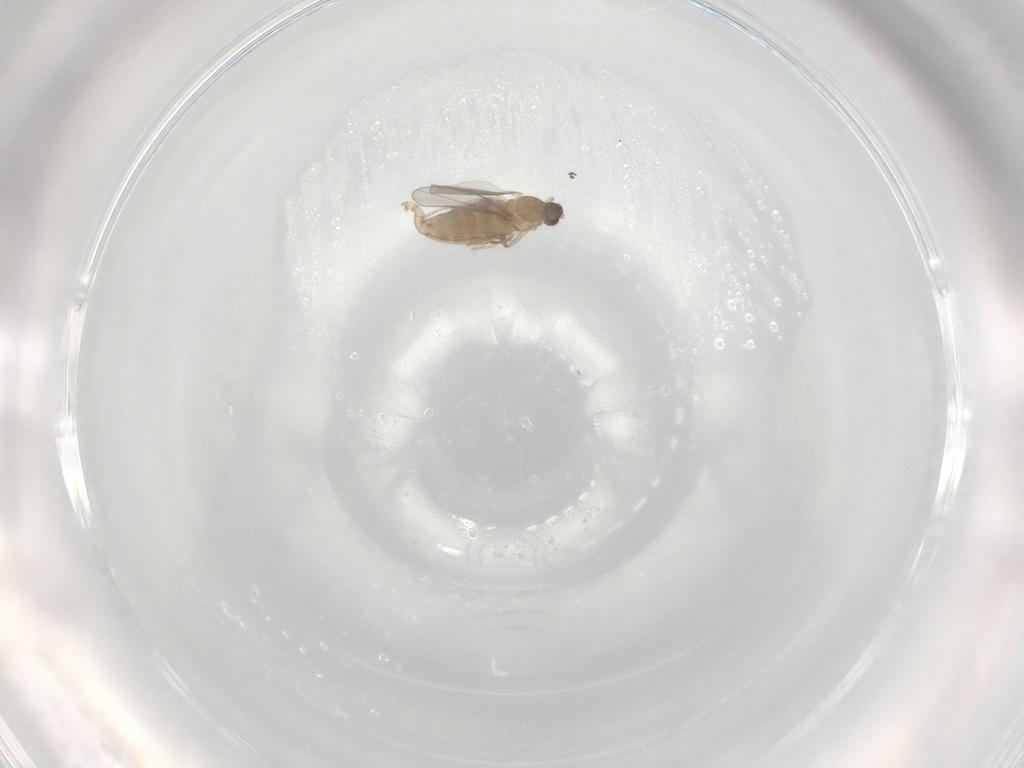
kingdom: Animalia
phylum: Arthropoda
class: Insecta
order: Diptera
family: Cecidomyiidae
